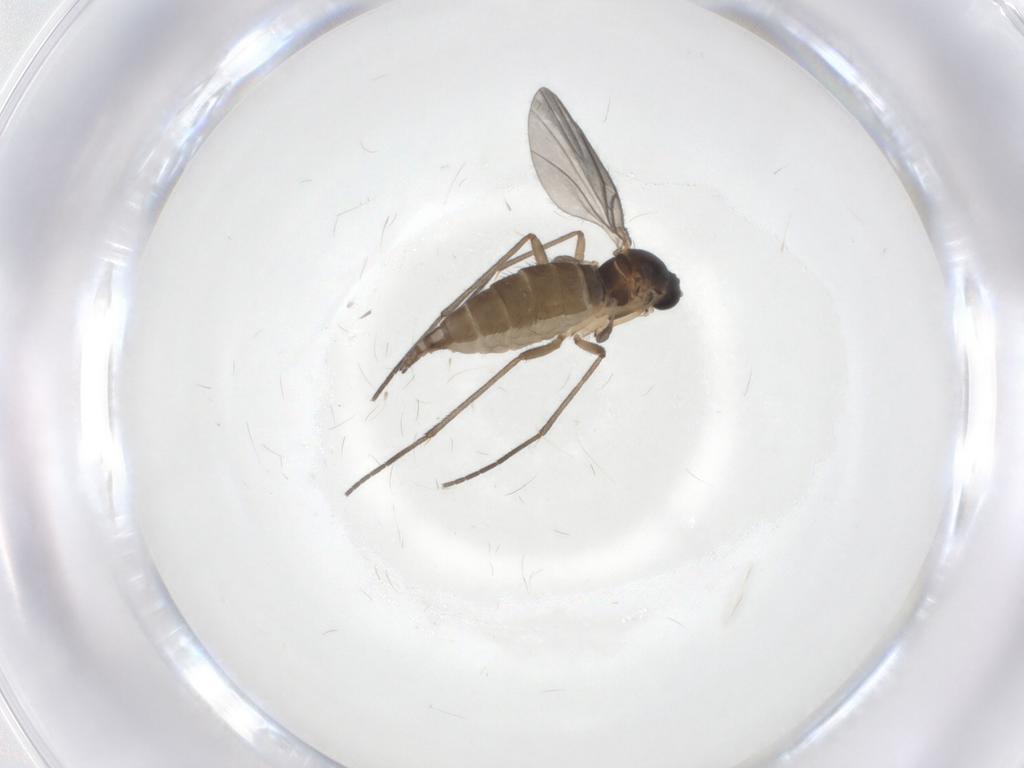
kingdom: Animalia
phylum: Arthropoda
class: Insecta
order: Diptera
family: Sciaridae
